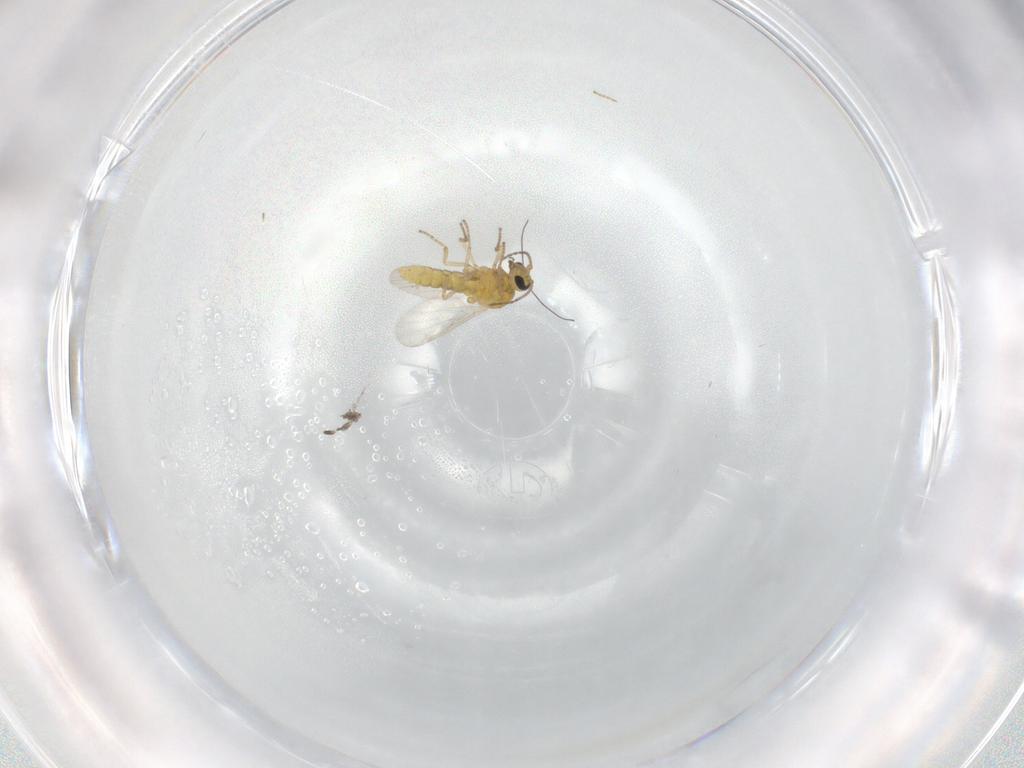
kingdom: Animalia
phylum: Arthropoda
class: Insecta
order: Diptera
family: Ceratopogonidae
